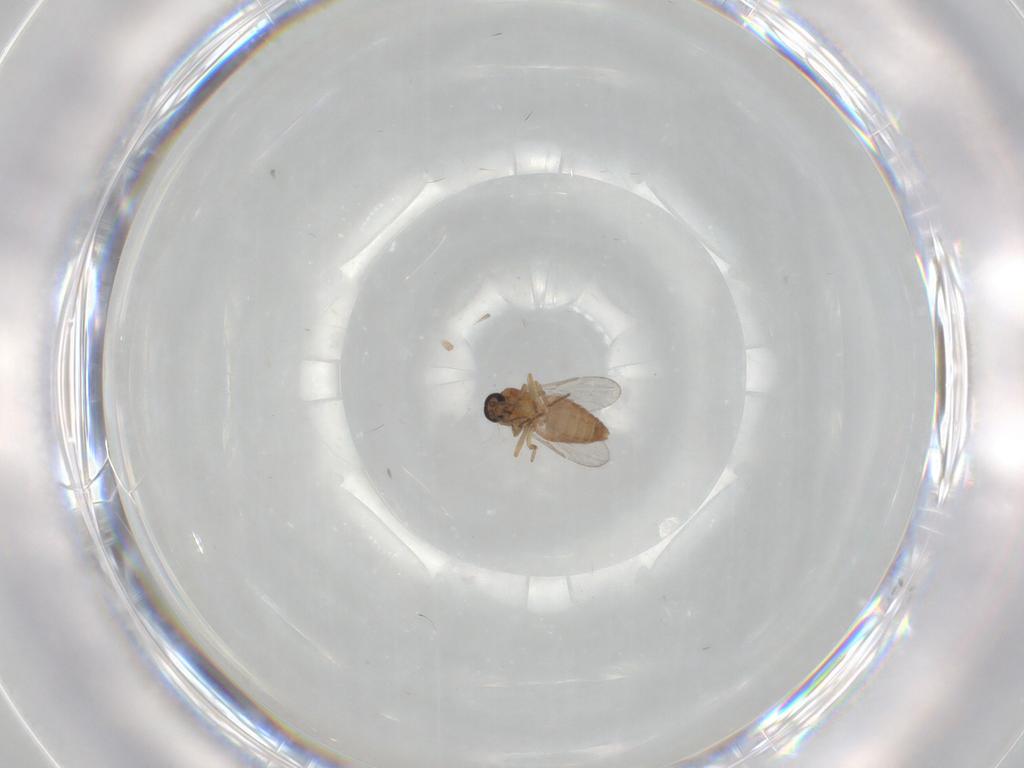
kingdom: Animalia
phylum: Arthropoda
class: Insecta
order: Diptera
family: Ceratopogonidae
